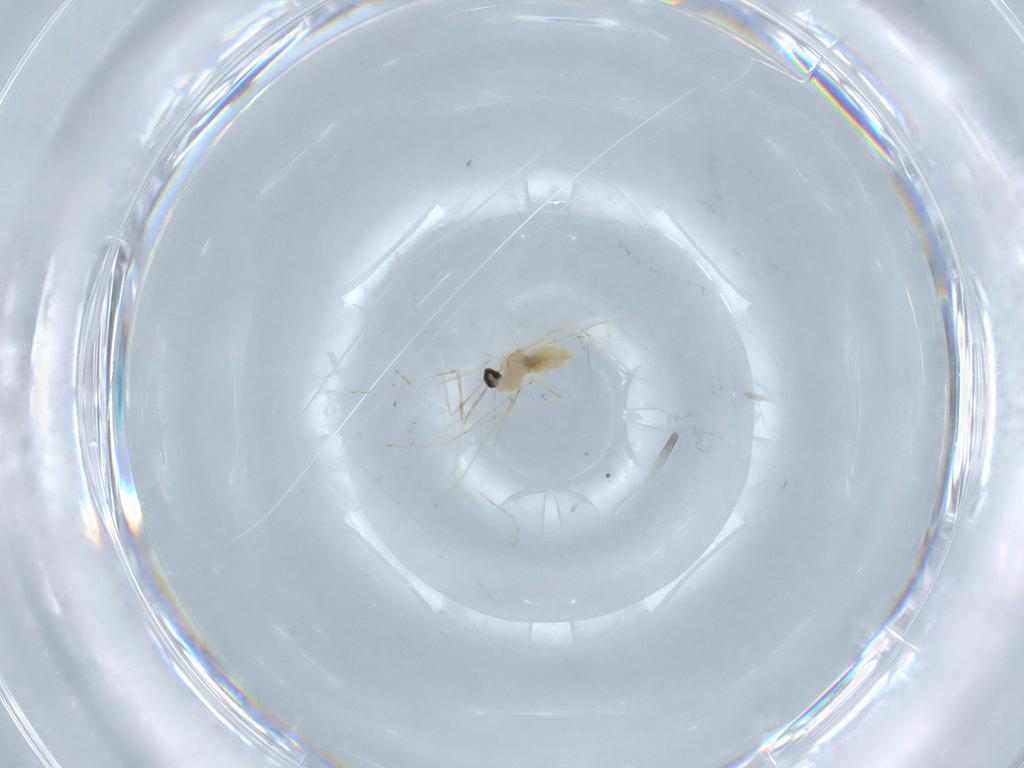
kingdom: Animalia
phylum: Arthropoda
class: Insecta
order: Diptera
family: Cecidomyiidae
